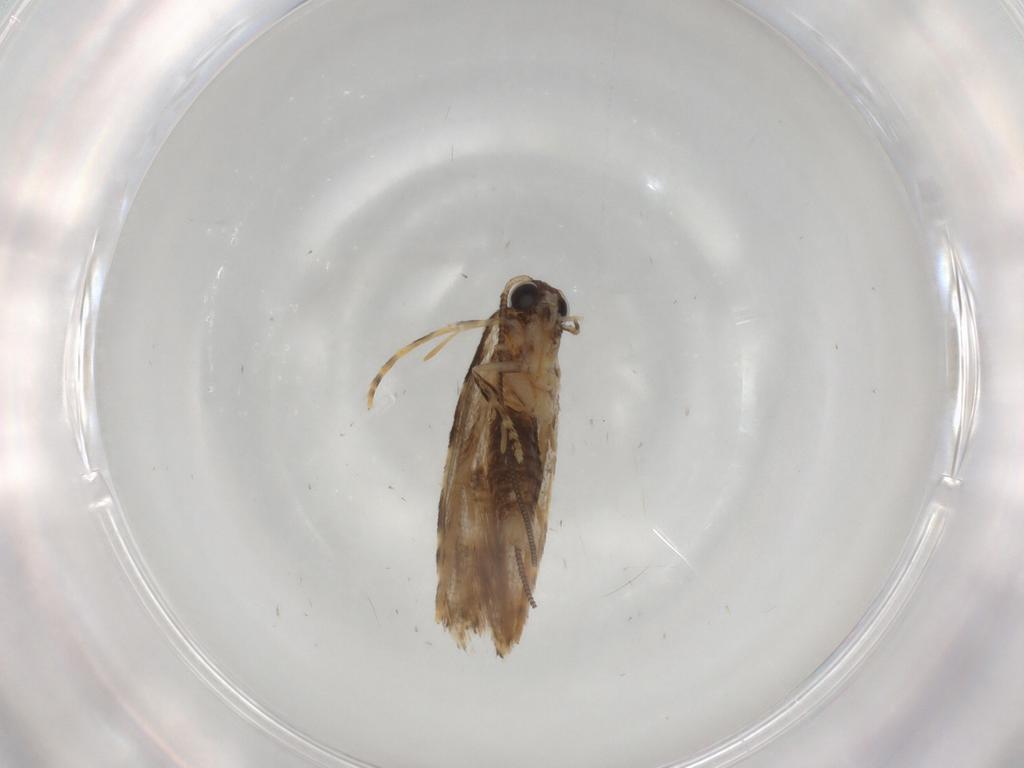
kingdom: Animalia
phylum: Arthropoda
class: Insecta
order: Lepidoptera
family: Tineidae
